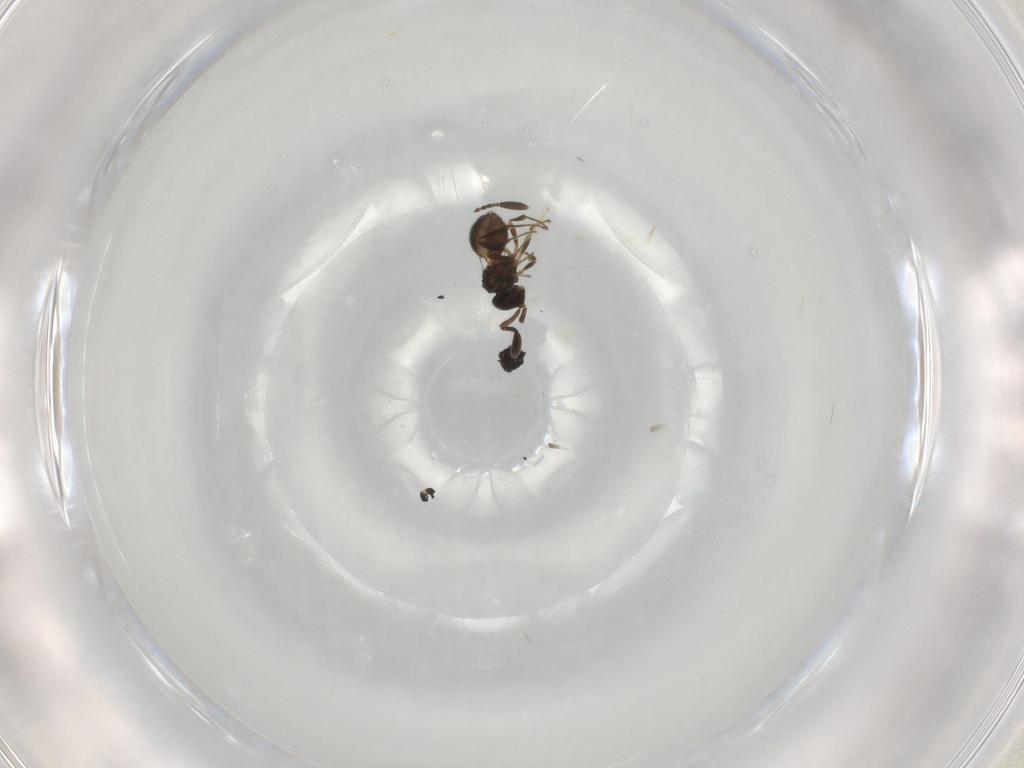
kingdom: Animalia
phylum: Arthropoda
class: Insecta
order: Hymenoptera
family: Scelionidae
